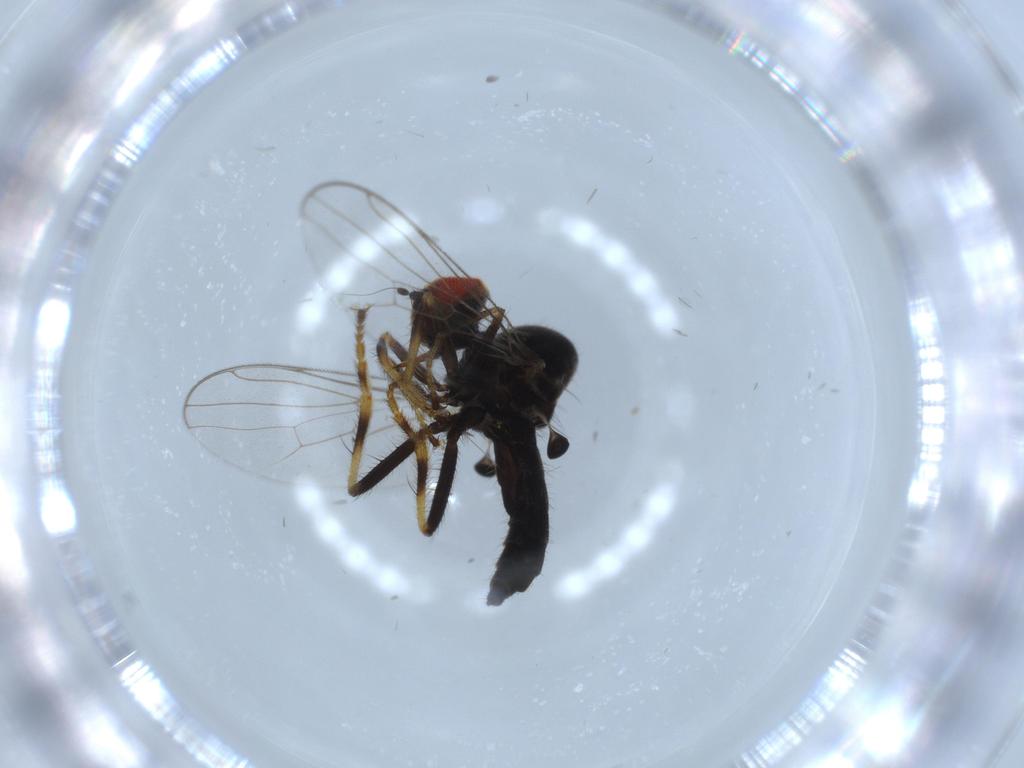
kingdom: Animalia
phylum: Arthropoda
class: Insecta
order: Diptera
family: Hybotidae
